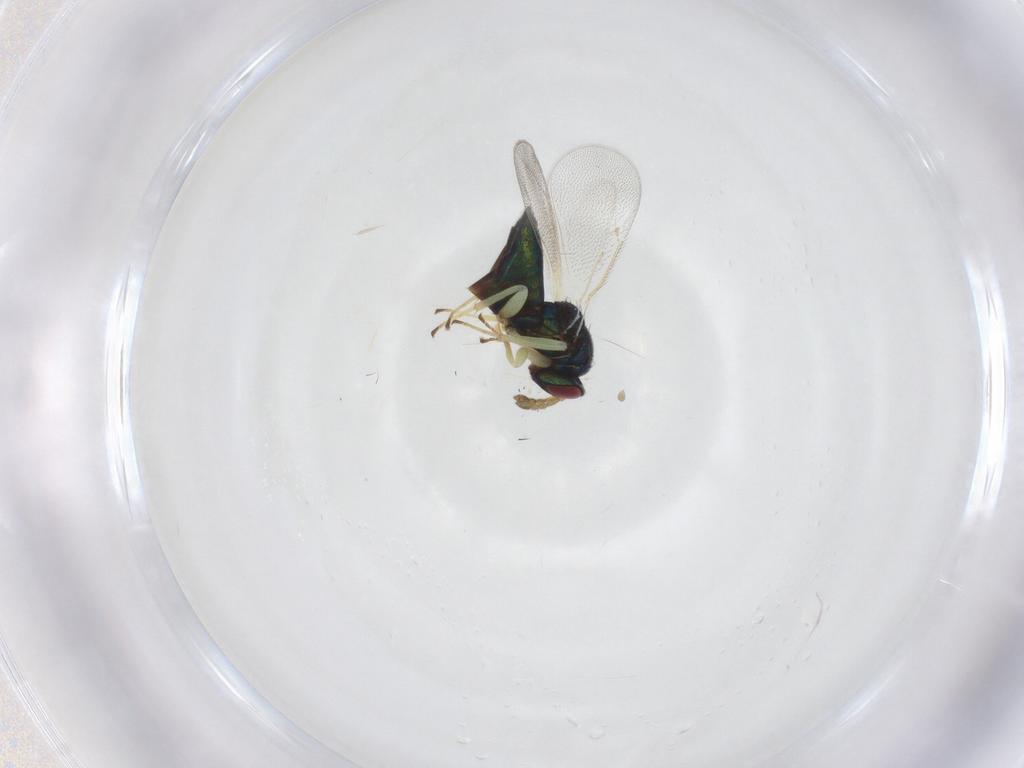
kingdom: Animalia
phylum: Arthropoda
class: Insecta
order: Hymenoptera
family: Eulophidae
